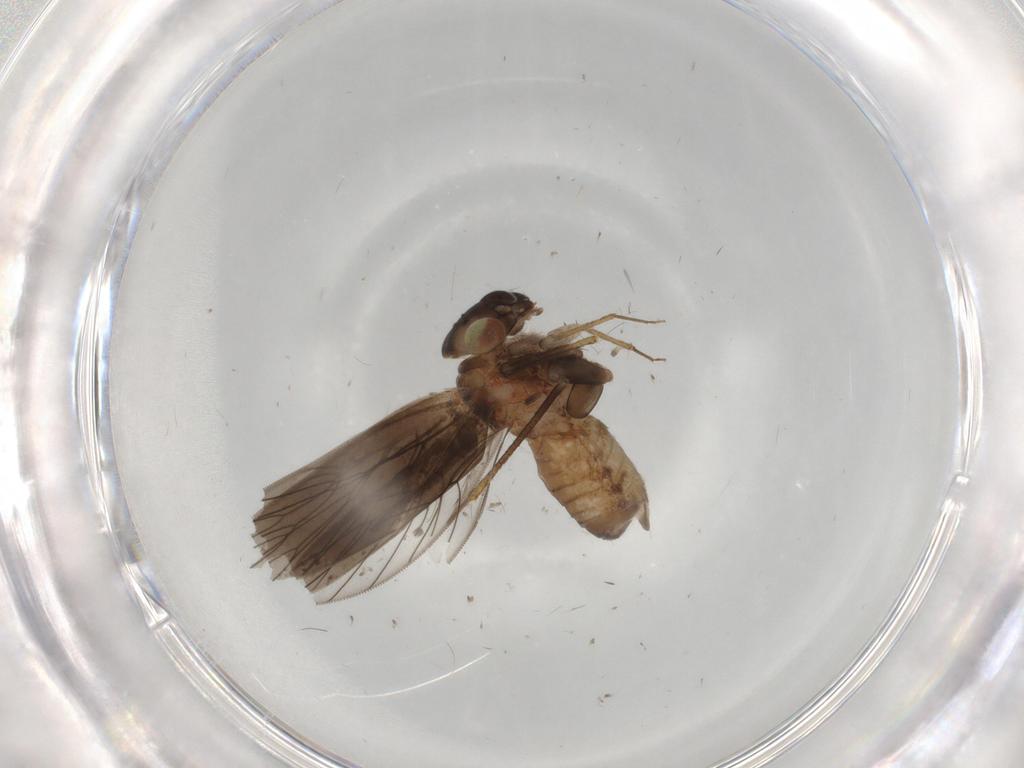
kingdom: Animalia
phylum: Arthropoda
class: Insecta
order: Psocodea
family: Lepidopsocidae
